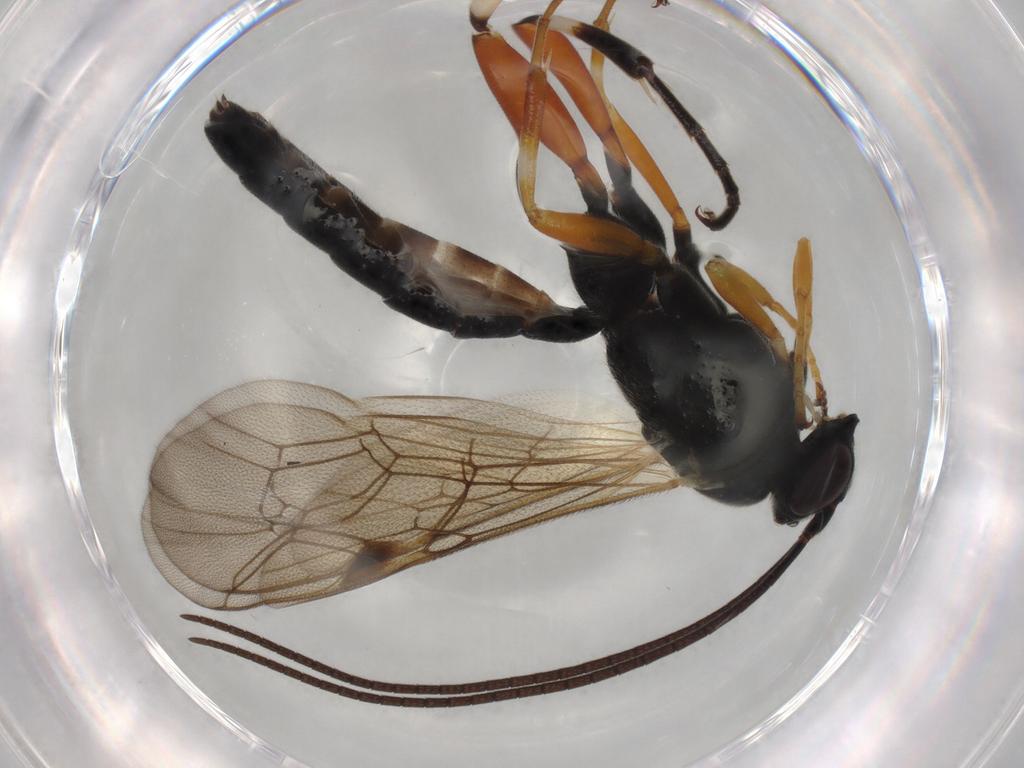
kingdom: Animalia
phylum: Arthropoda
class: Insecta
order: Hymenoptera
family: Ichneumonidae
